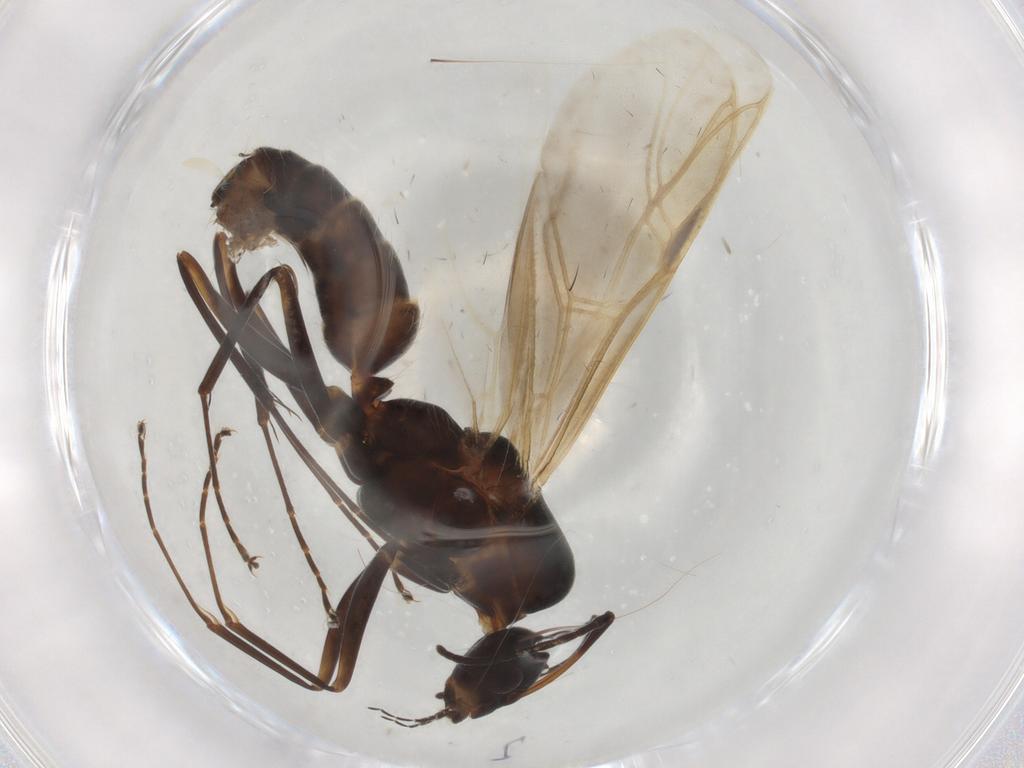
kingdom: Animalia
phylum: Arthropoda
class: Insecta
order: Hymenoptera
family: Formicidae
